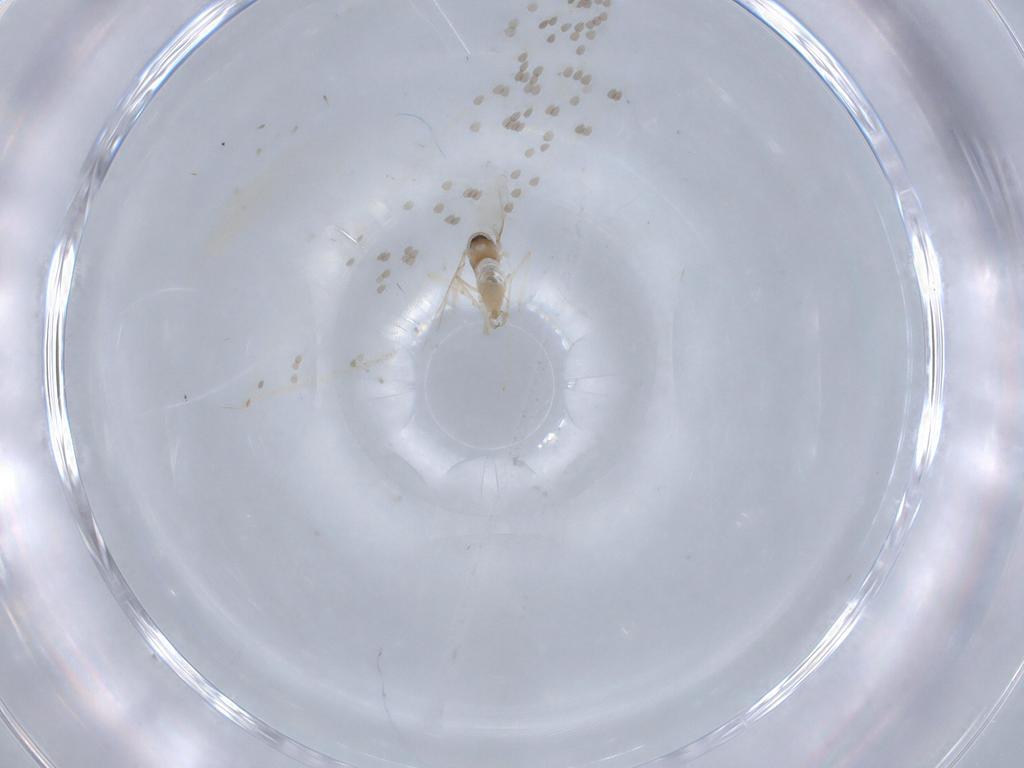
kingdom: Animalia
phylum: Arthropoda
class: Insecta
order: Diptera
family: Cecidomyiidae
